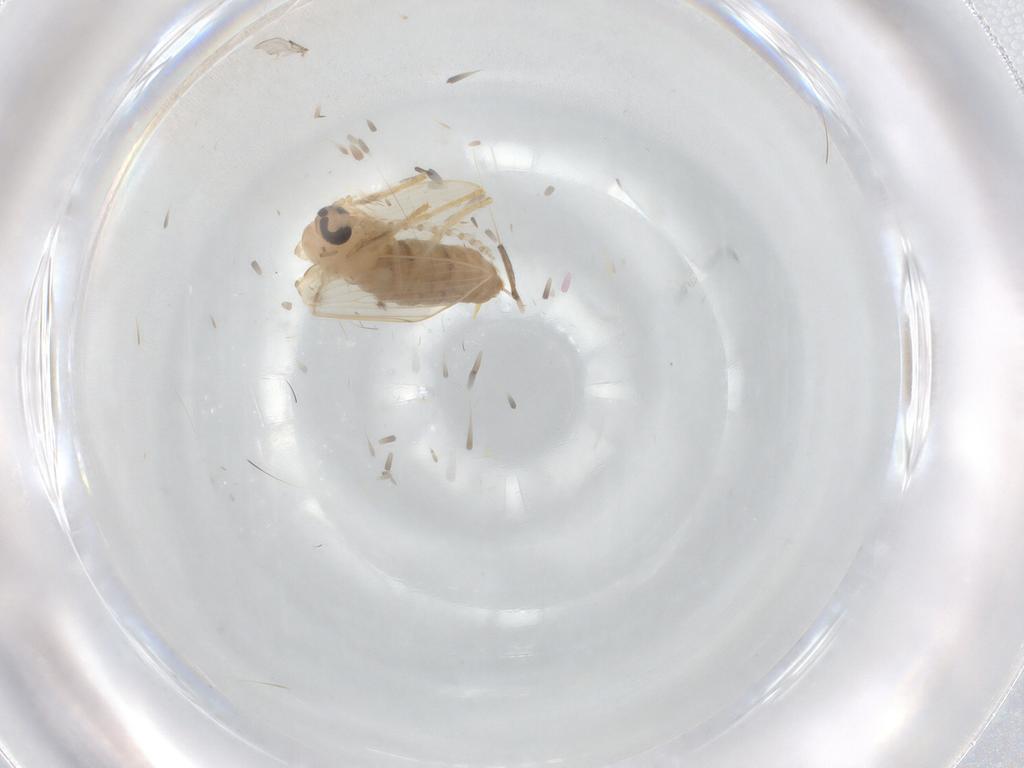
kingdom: Animalia
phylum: Arthropoda
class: Insecta
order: Diptera
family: Psychodidae
